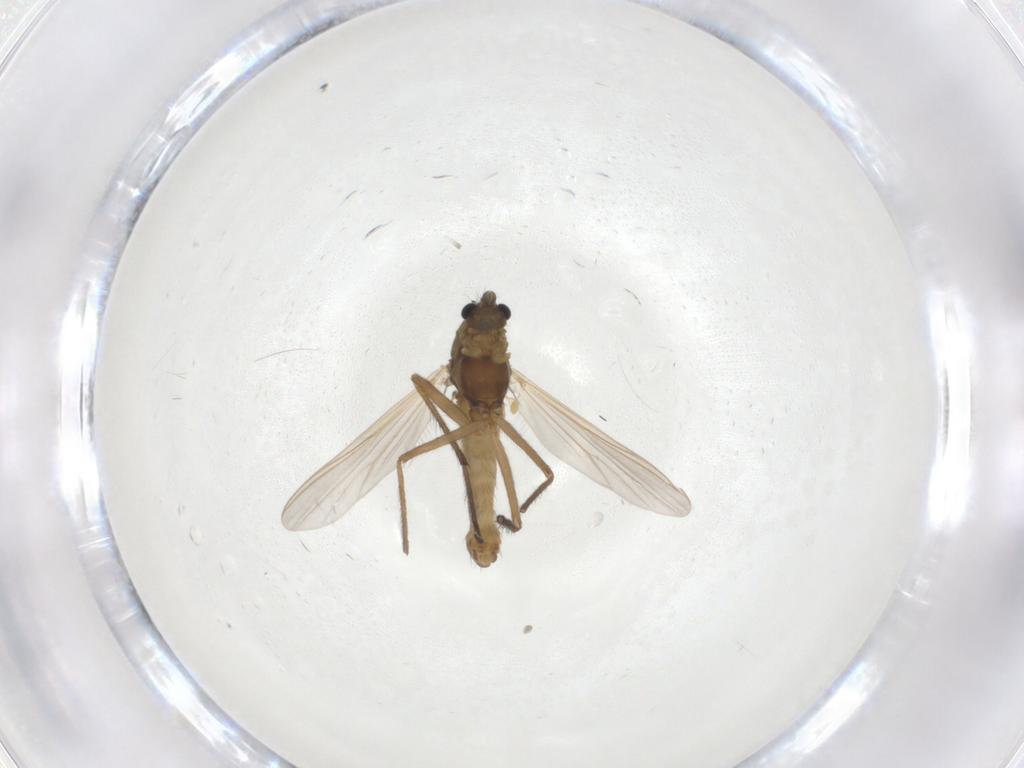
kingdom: Animalia
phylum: Arthropoda
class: Insecta
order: Diptera
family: Chironomidae
